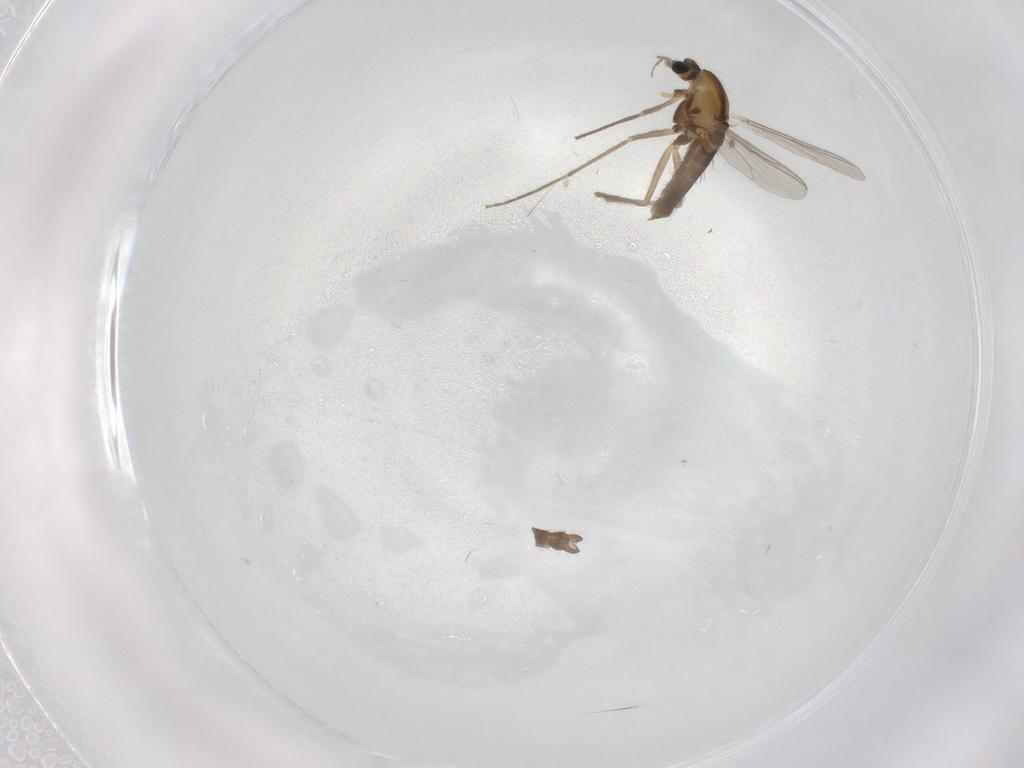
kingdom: Animalia
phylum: Arthropoda
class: Insecta
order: Diptera
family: Chironomidae
